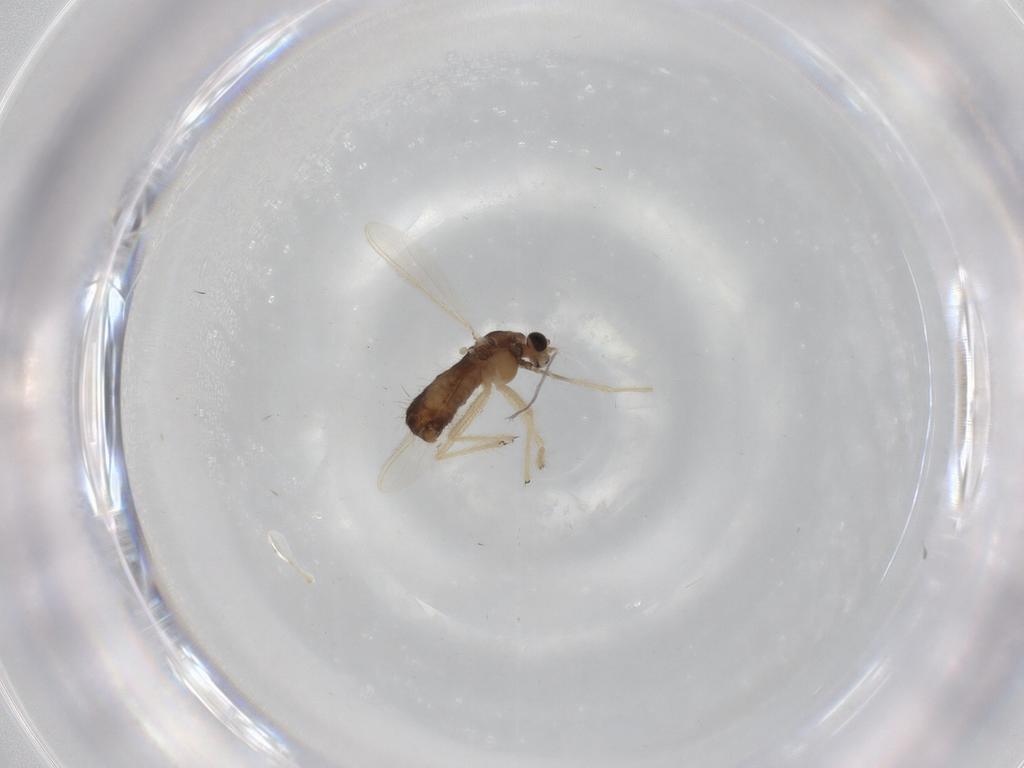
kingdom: Animalia
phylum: Arthropoda
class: Insecta
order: Diptera
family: Chironomidae
